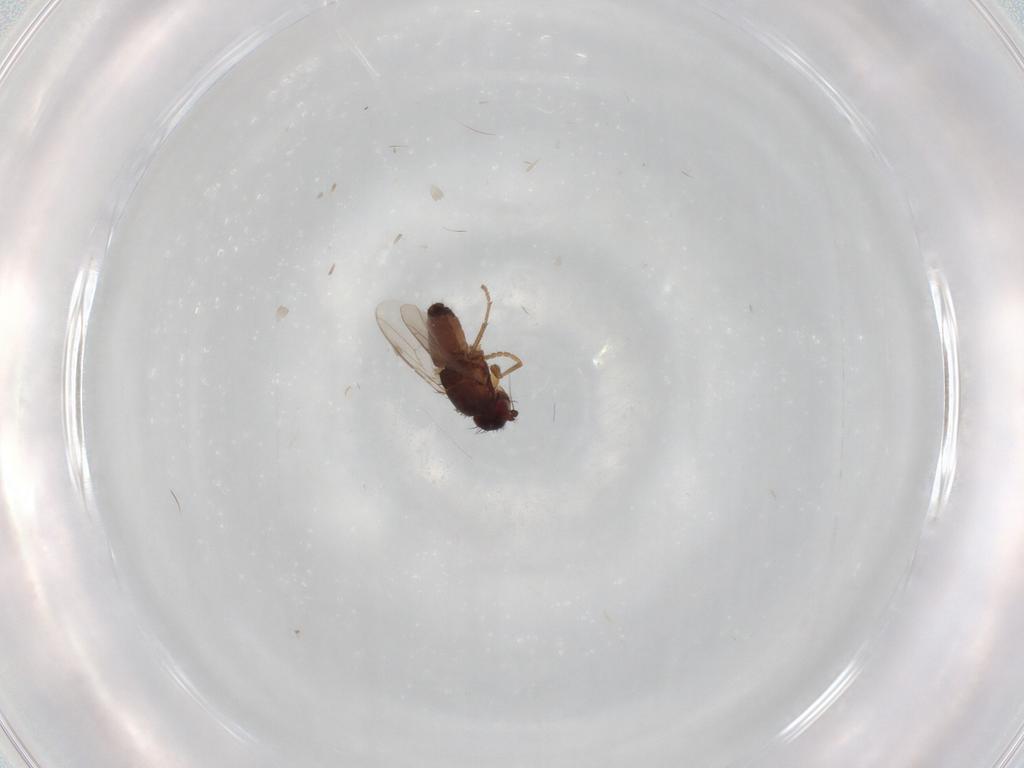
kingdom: Animalia
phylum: Arthropoda
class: Insecta
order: Diptera
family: Sphaeroceridae
